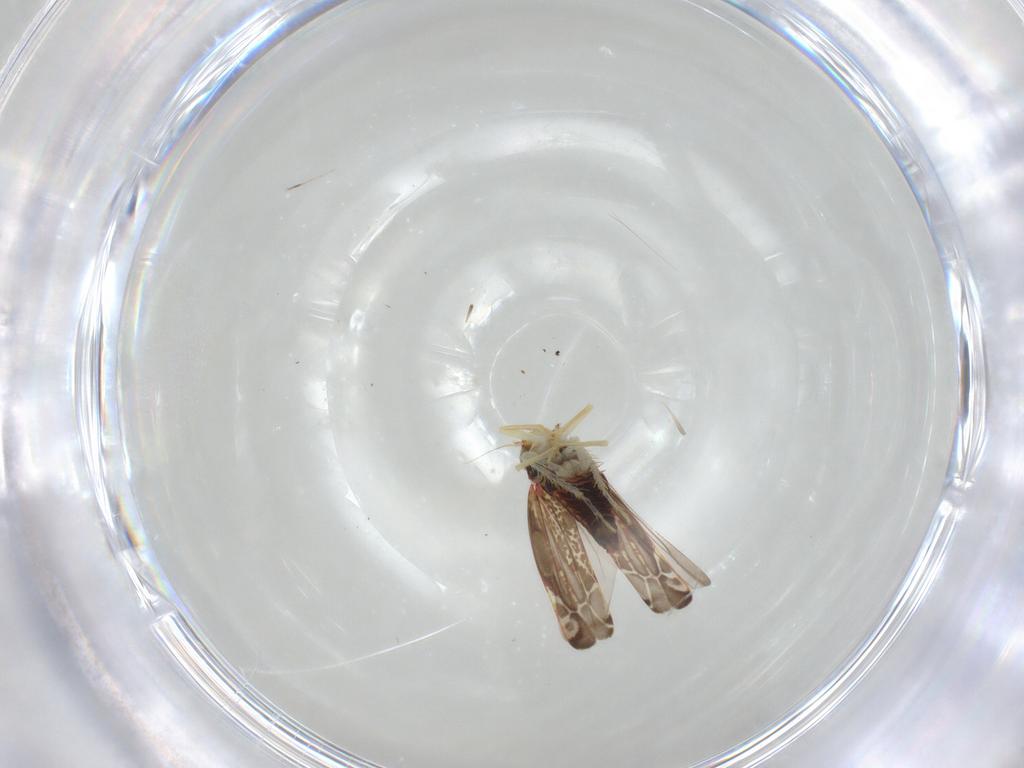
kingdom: Animalia
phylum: Arthropoda
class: Insecta
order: Hemiptera
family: Cicadellidae
